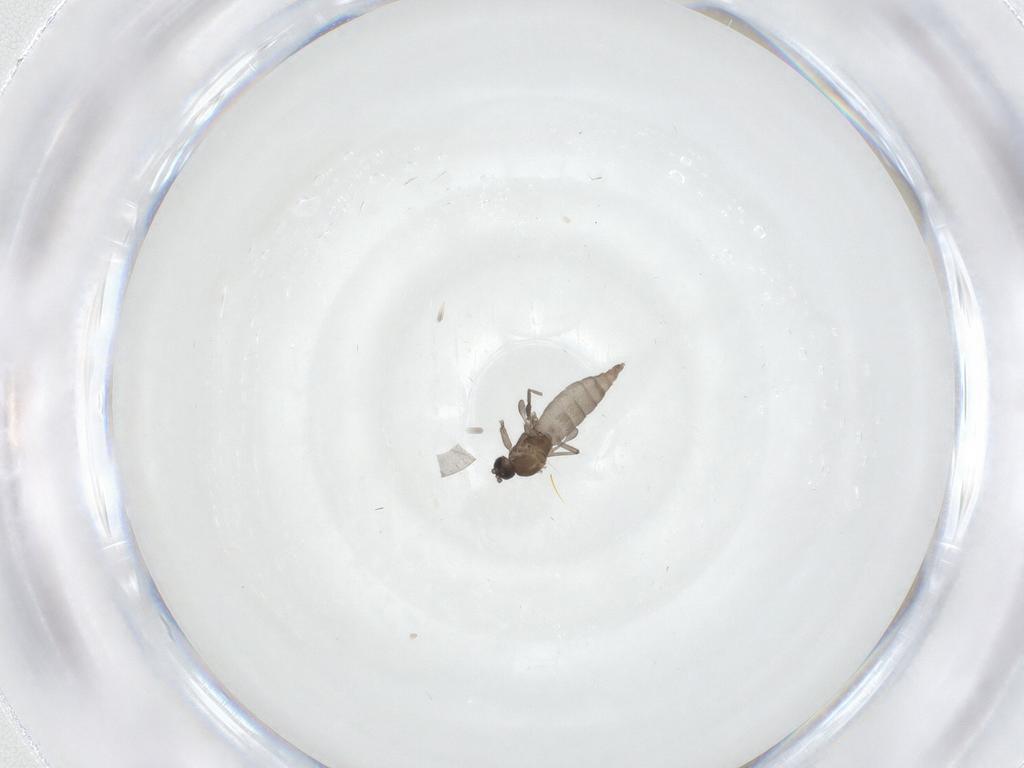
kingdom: Animalia
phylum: Arthropoda
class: Insecta
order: Diptera
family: Sciaridae
